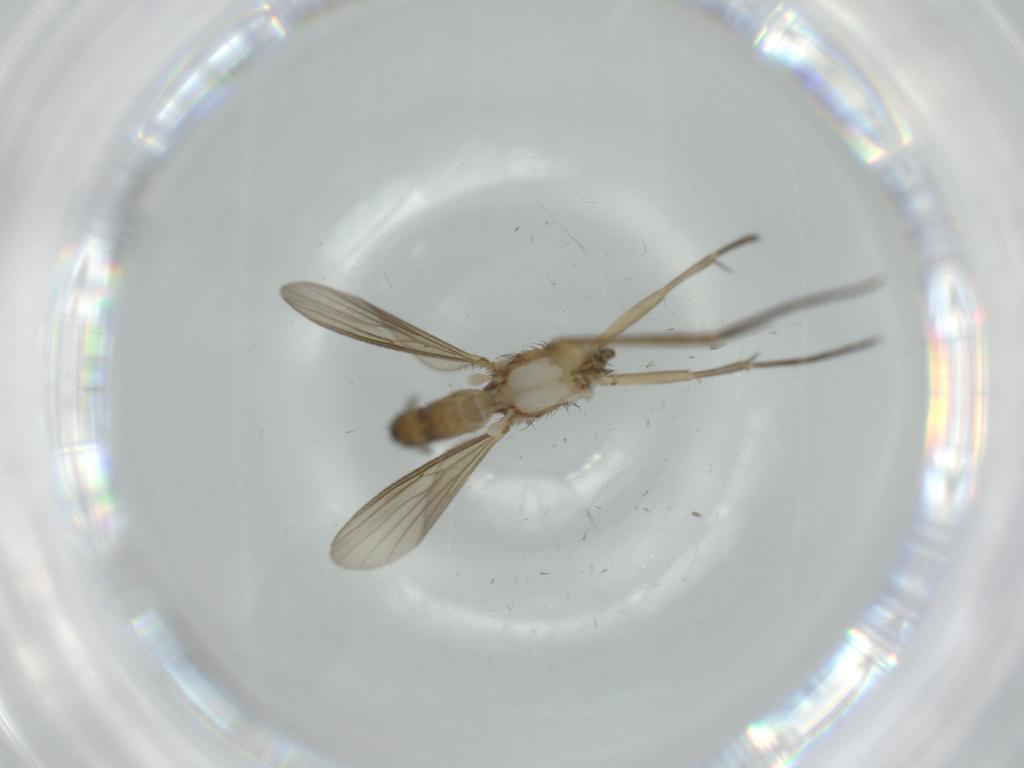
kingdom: Animalia
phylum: Arthropoda
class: Insecta
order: Diptera
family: Mycetophilidae
